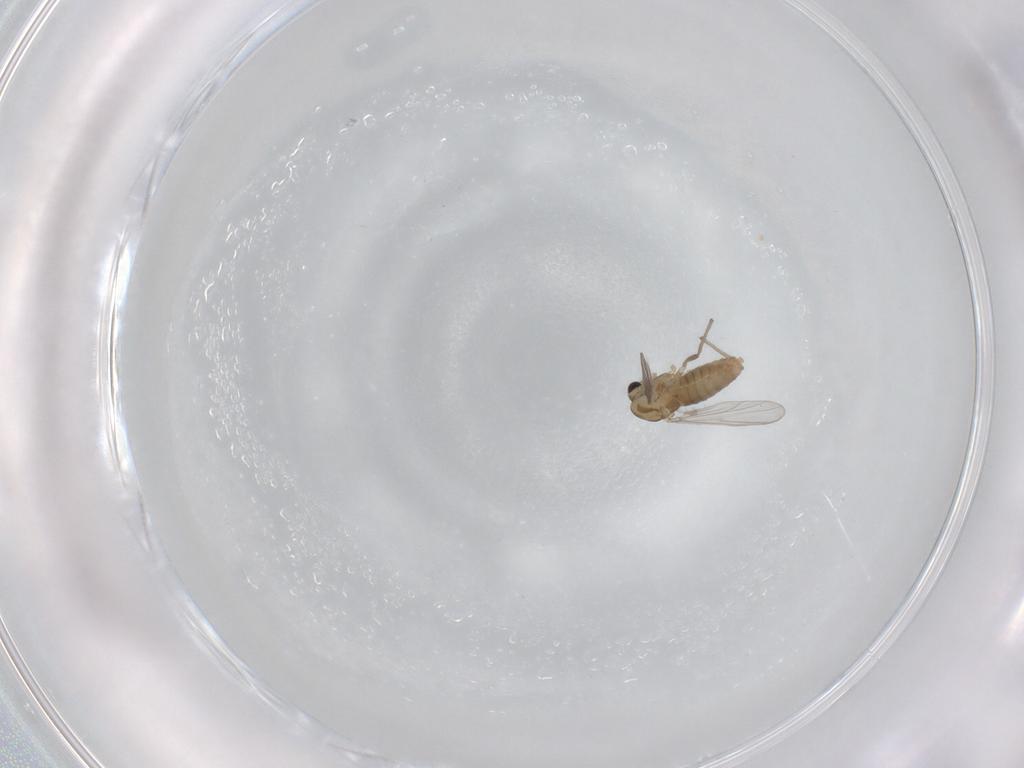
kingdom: Animalia
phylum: Arthropoda
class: Insecta
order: Diptera
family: Chironomidae
